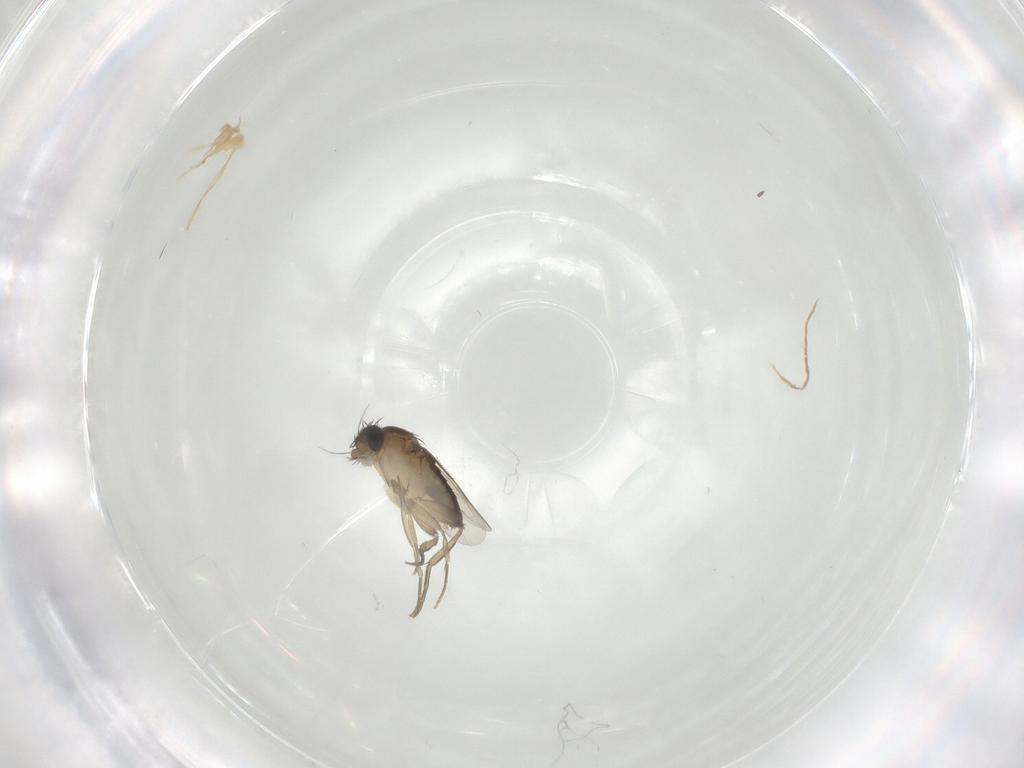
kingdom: Animalia
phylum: Arthropoda
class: Insecta
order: Diptera
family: Phoridae
